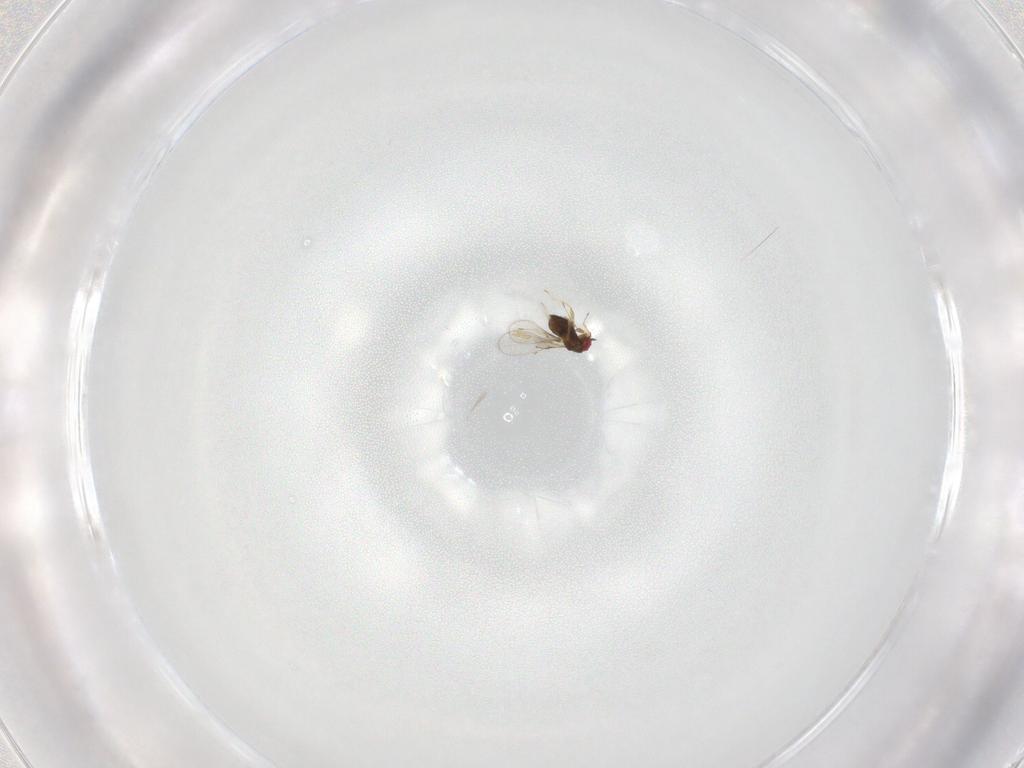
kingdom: Animalia
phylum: Arthropoda
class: Insecta
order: Hymenoptera
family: Trichogrammatidae
